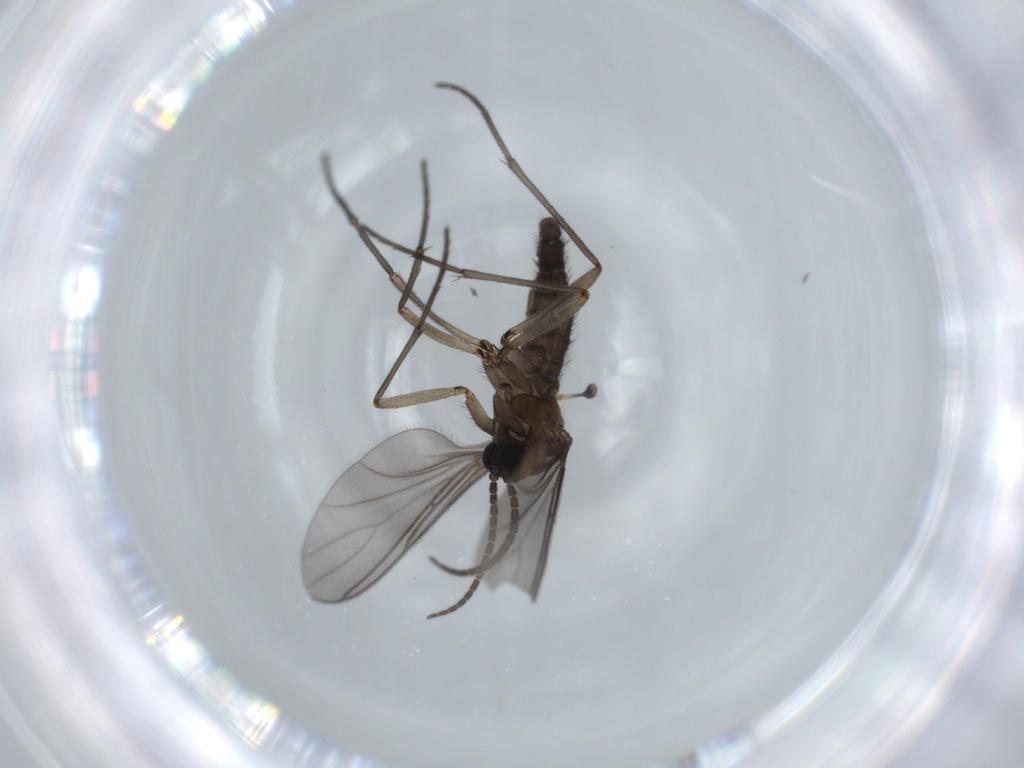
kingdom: Animalia
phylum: Arthropoda
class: Insecta
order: Diptera
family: Sciaridae
